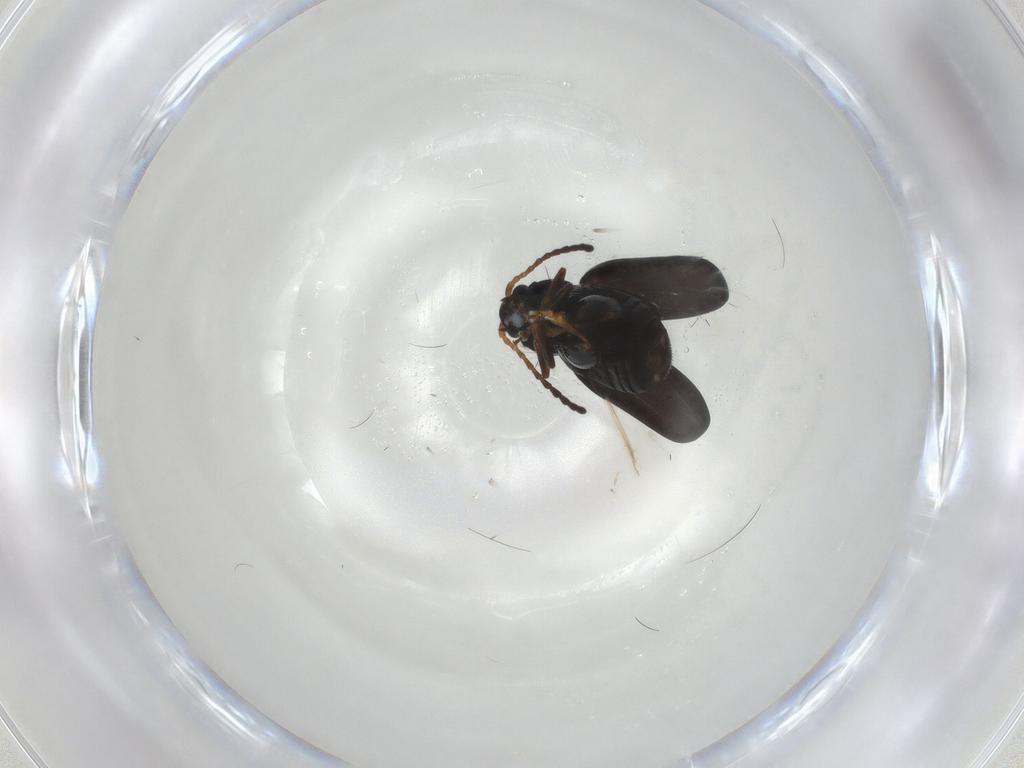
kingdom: Animalia
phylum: Arthropoda
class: Insecta
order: Coleoptera
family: Chrysomelidae
